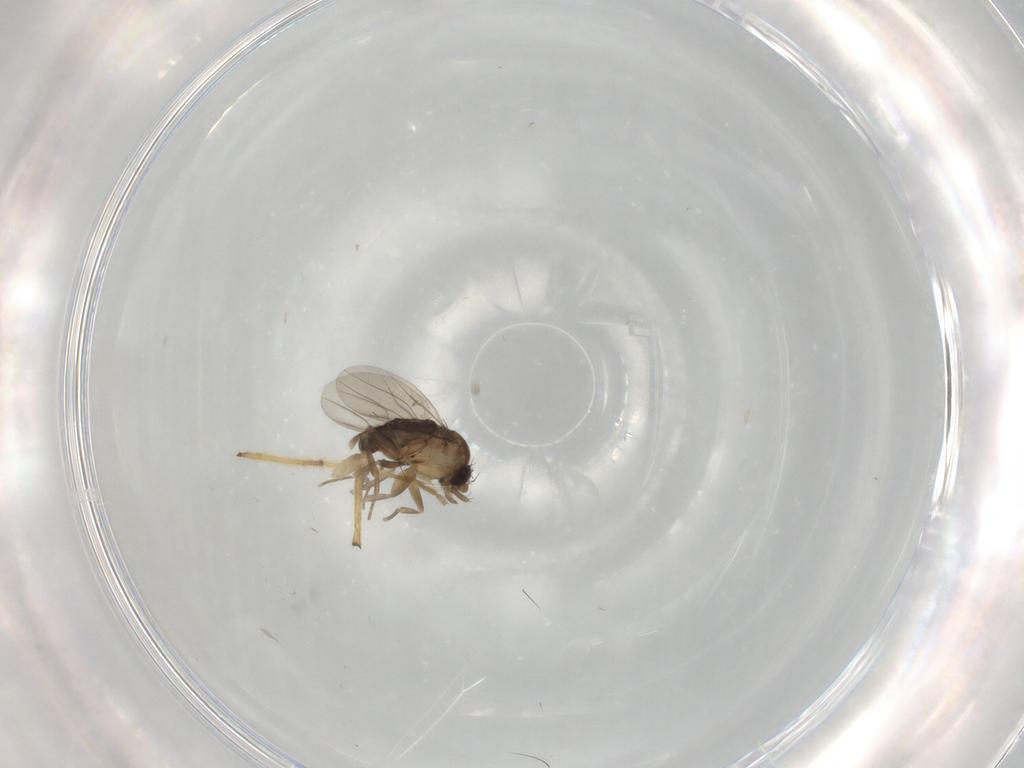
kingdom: Animalia
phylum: Arthropoda
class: Insecta
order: Diptera
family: Phoridae
